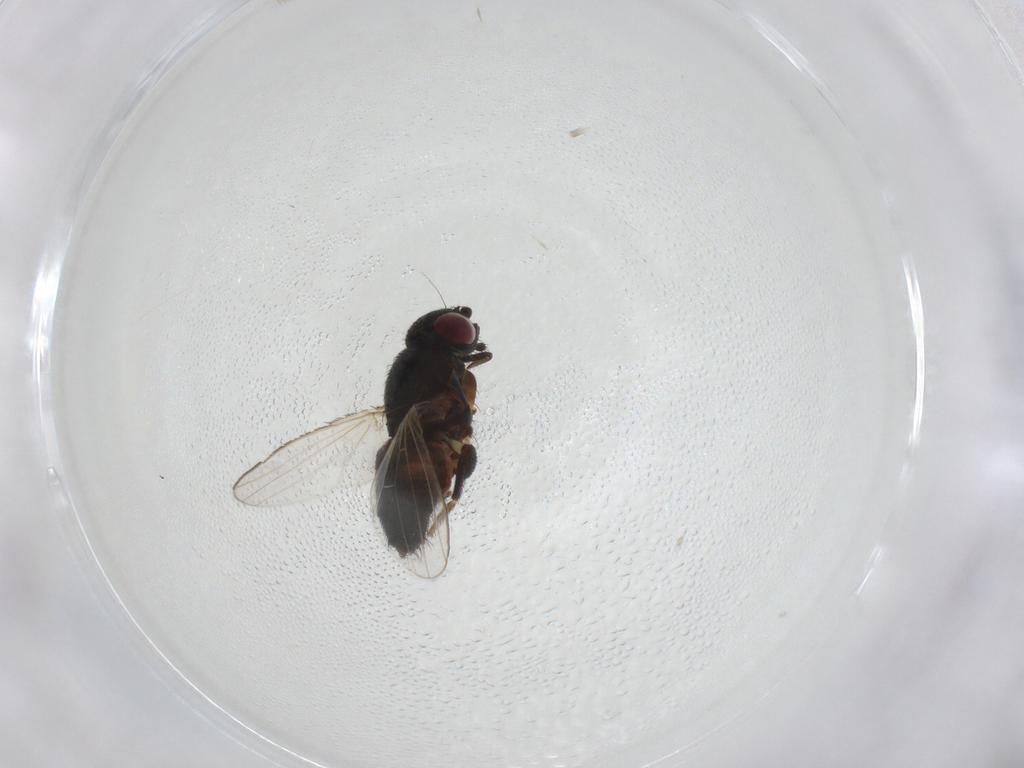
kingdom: Animalia
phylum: Arthropoda
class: Insecta
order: Diptera
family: Milichiidae
